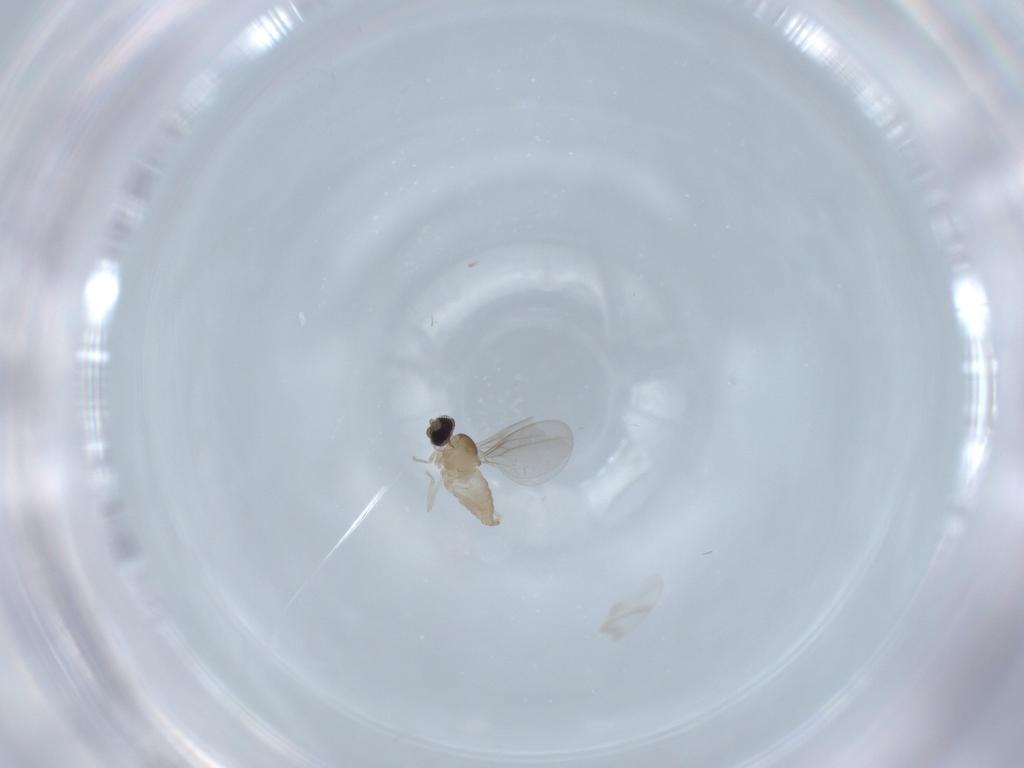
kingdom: Animalia
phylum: Arthropoda
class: Insecta
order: Diptera
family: Cecidomyiidae
